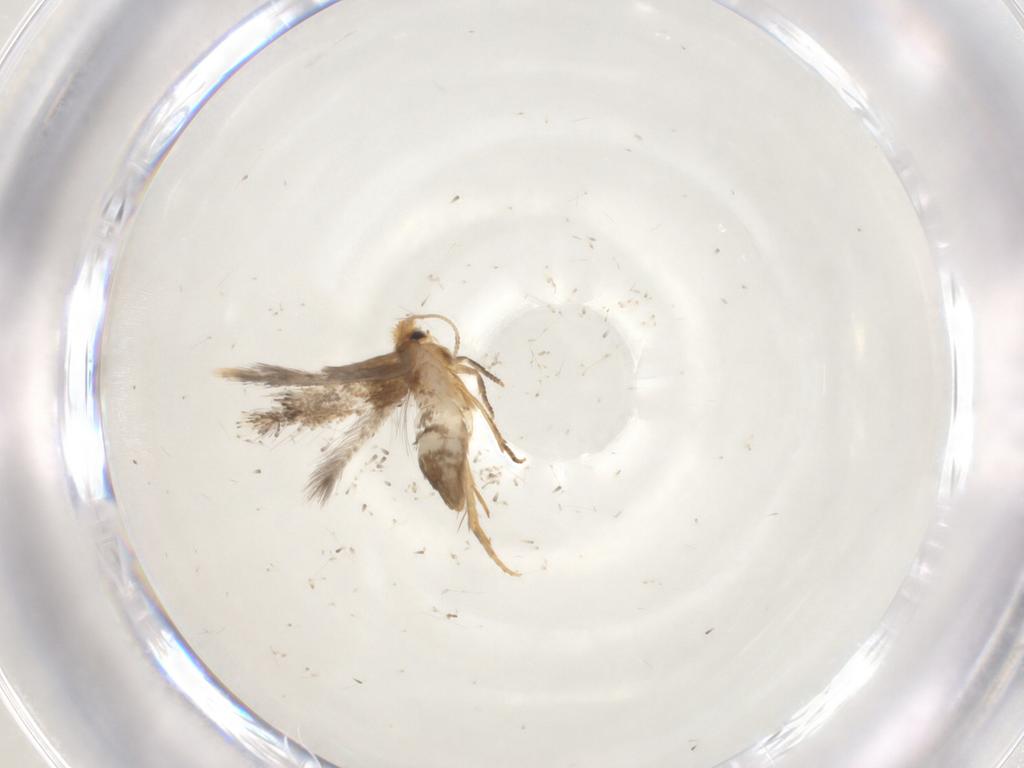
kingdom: Animalia
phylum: Arthropoda
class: Insecta
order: Lepidoptera
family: Nepticulidae
